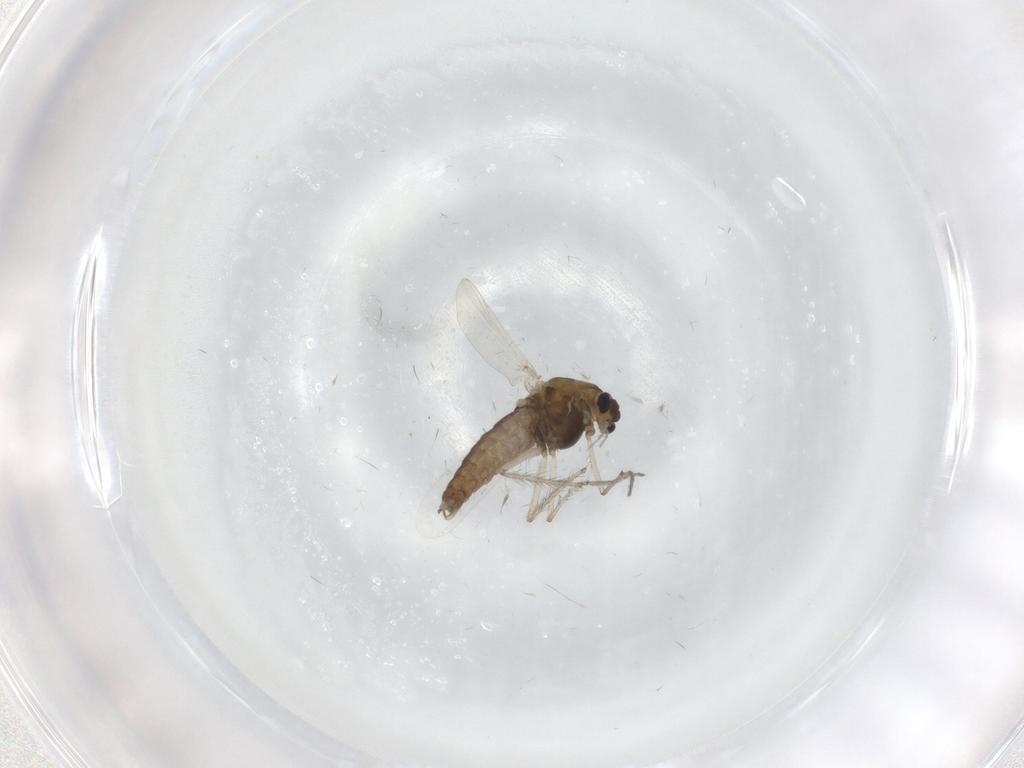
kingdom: Animalia
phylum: Arthropoda
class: Insecta
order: Diptera
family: Chironomidae
